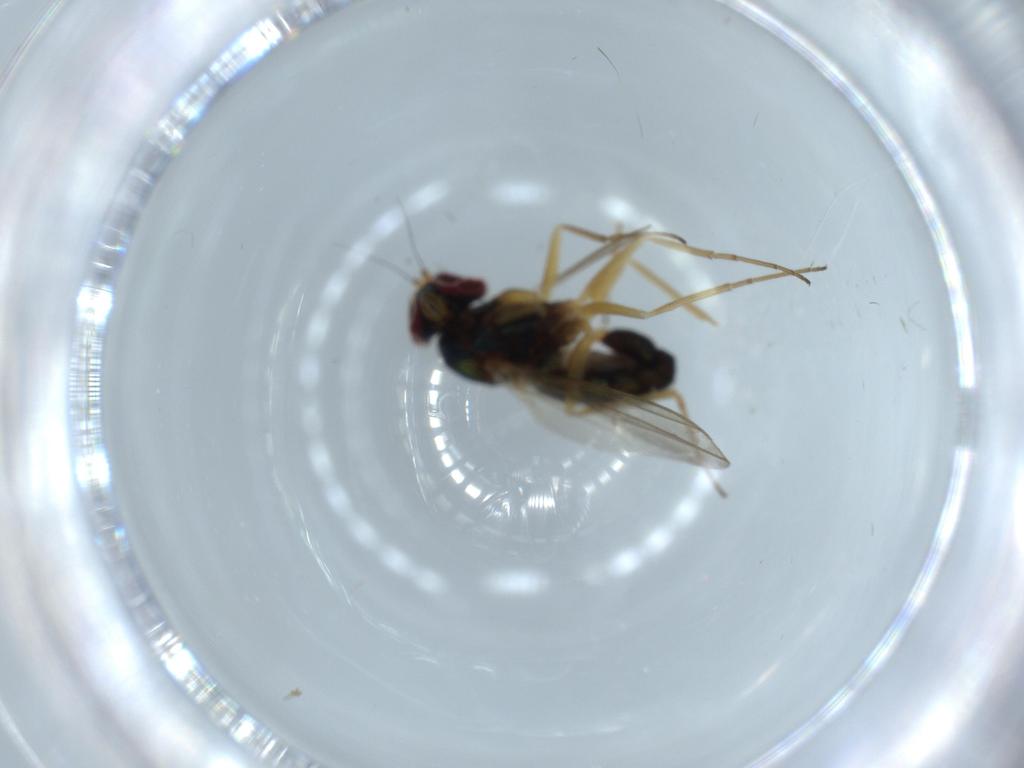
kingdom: Animalia
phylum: Arthropoda
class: Insecta
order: Diptera
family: Dolichopodidae
